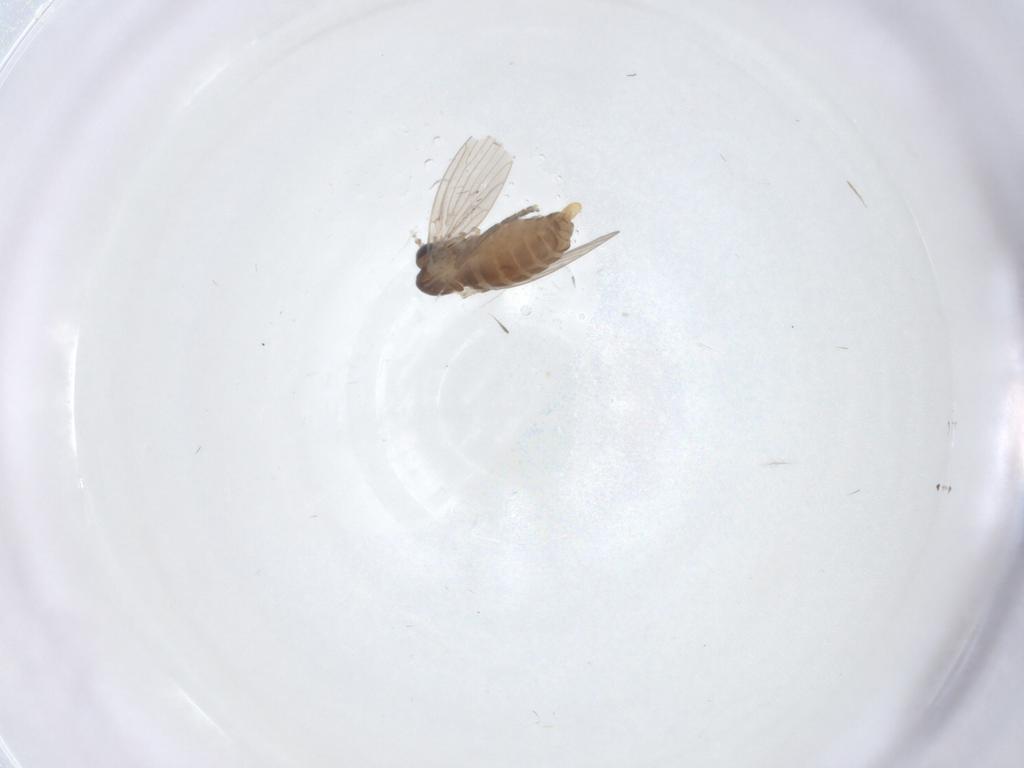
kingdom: Animalia
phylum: Arthropoda
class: Insecta
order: Diptera
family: Psychodidae
